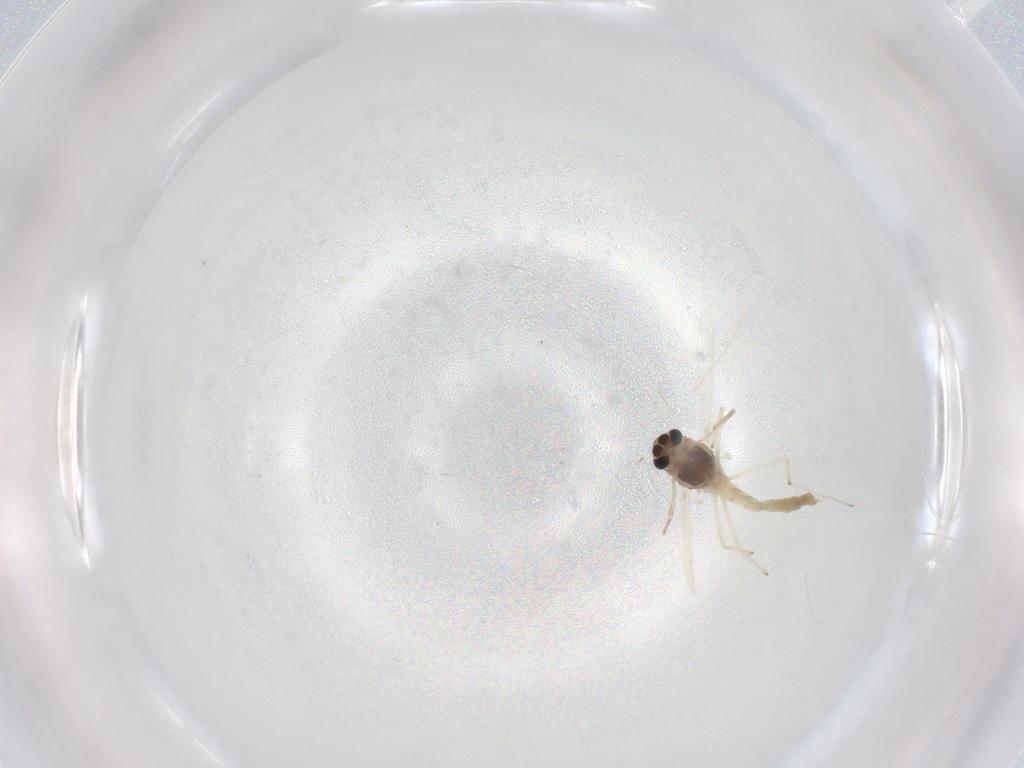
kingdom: Animalia
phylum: Arthropoda
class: Insecta
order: Diptera
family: Chironomidae
